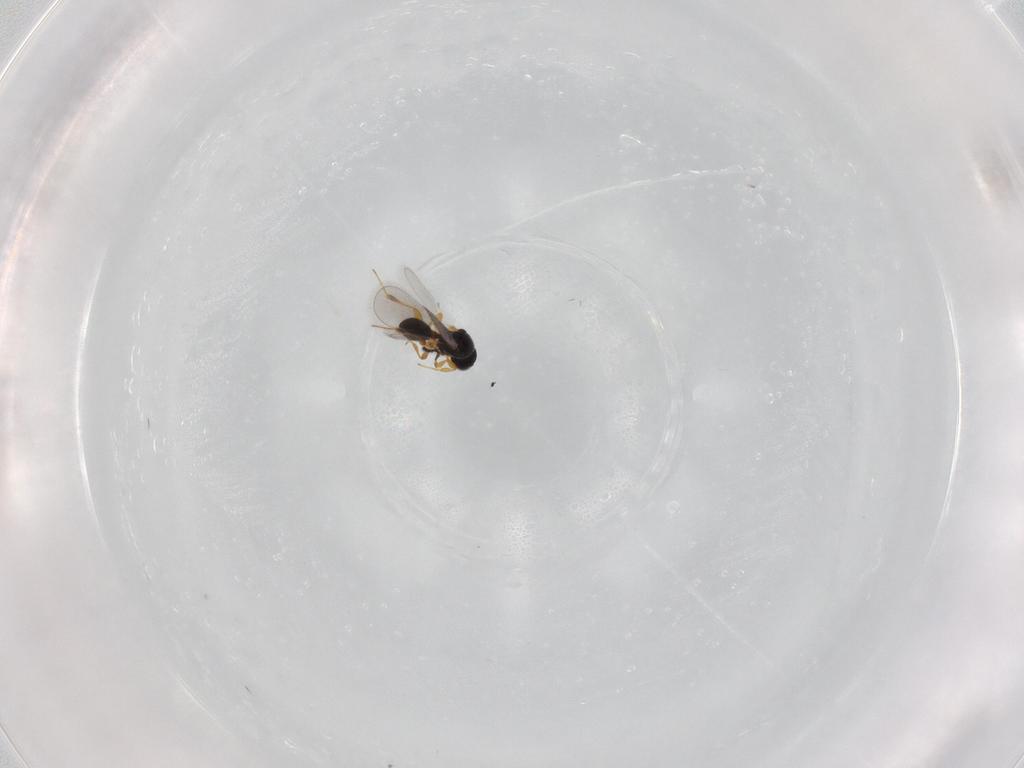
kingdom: Animalia
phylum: Arthropoda
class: Insecta
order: Hymenoptera
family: Platygastridae
